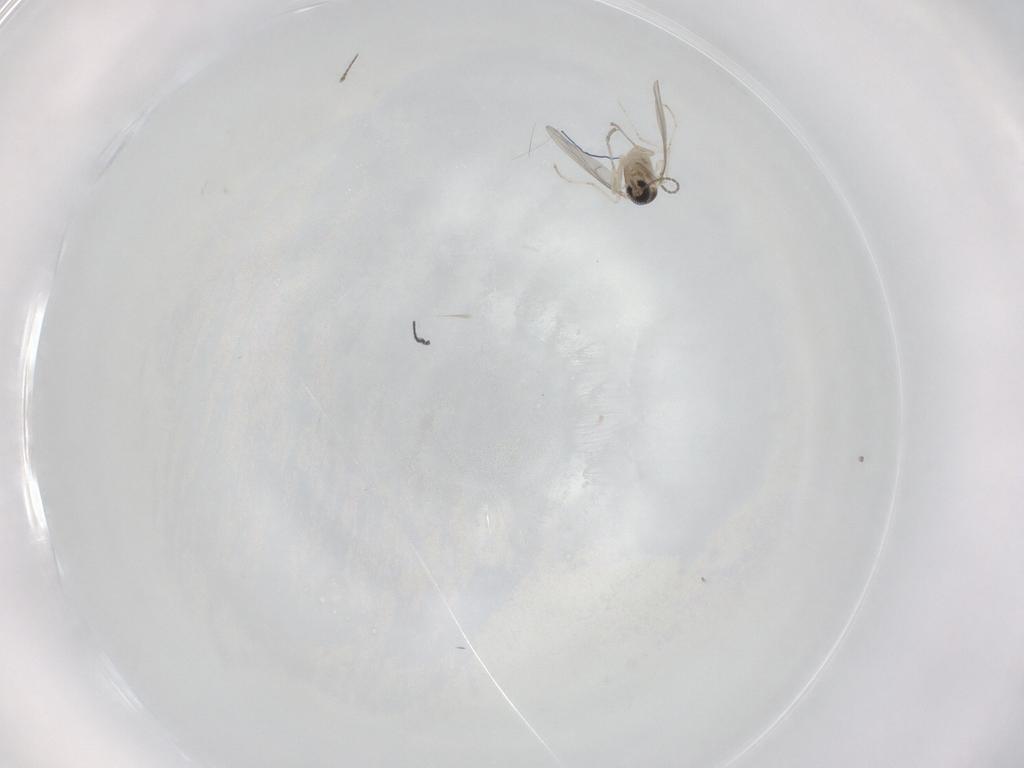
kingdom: Animalia
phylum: Arthropoda
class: Insecta
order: Diptera
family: Cecidomyiidae
